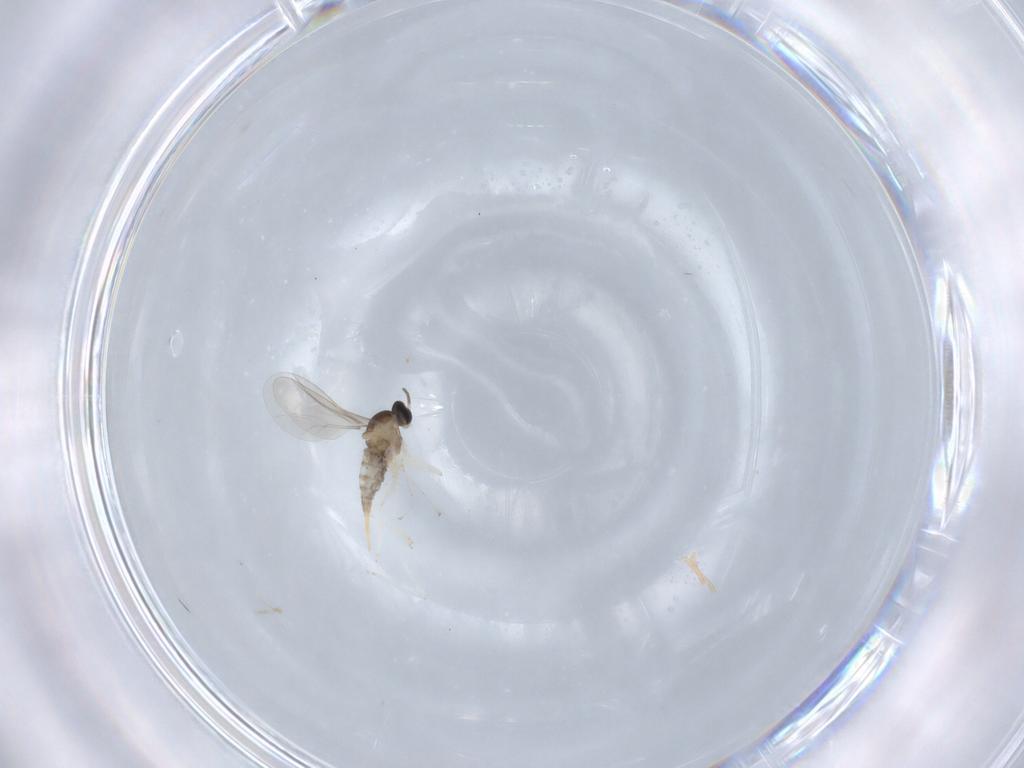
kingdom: Animalia
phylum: Arthropoda
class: Insecta
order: Diptera
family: Cecidomyiidae
